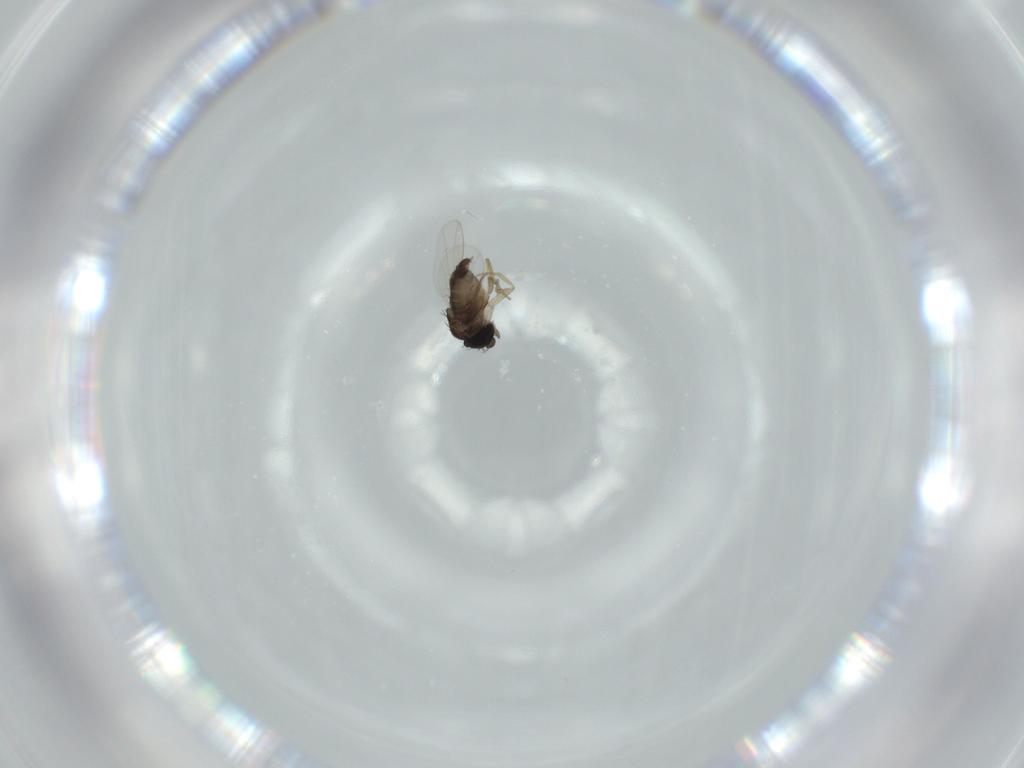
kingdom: Animalia
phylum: Arthropoda
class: Insecta
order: Diptera
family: Phoridae
